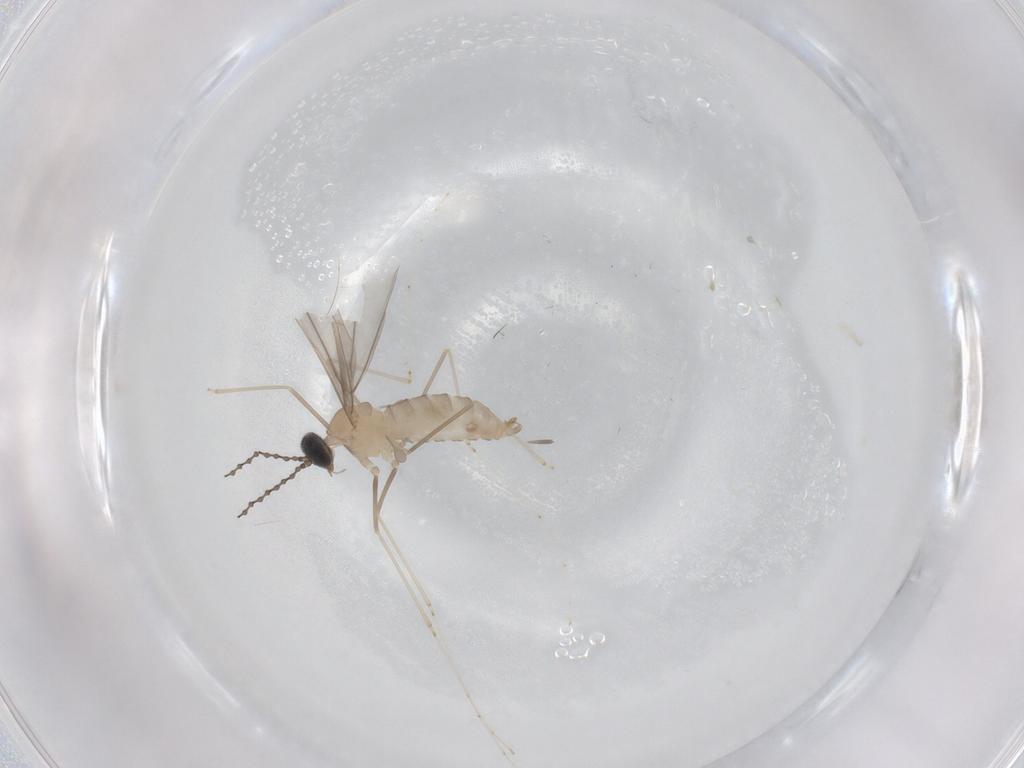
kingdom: Animalia
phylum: Arthropoda
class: Insecta
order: Diptera
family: Cecidomyiidae
